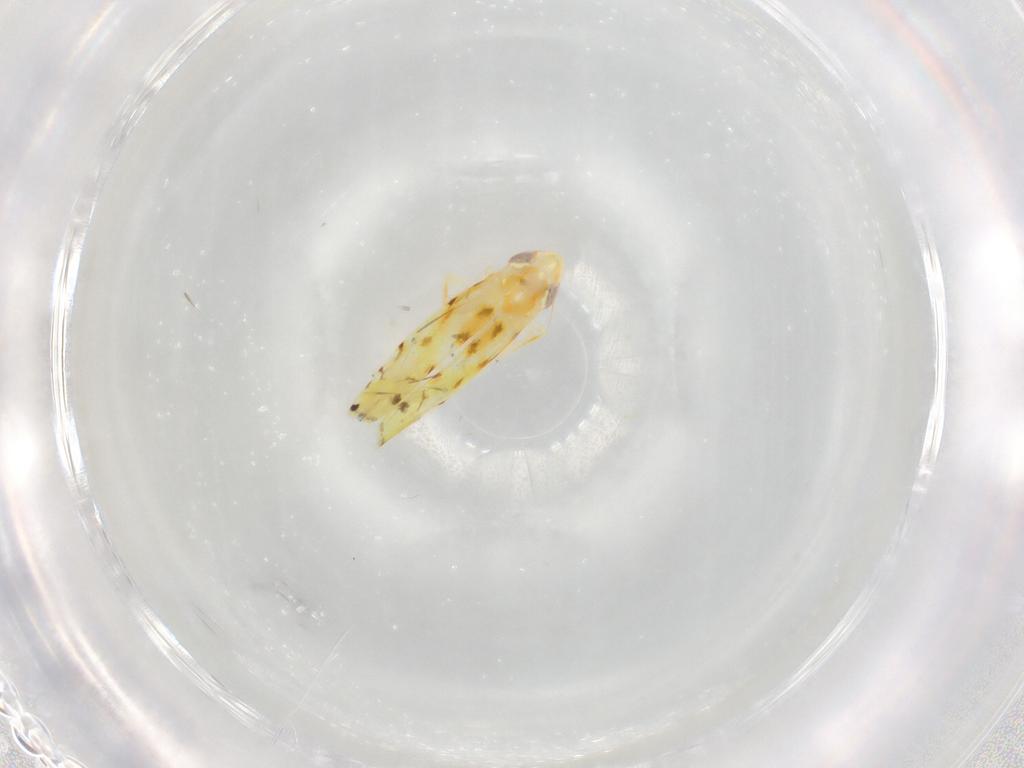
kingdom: Animalia
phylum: Arthropoda
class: Insecta
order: Hemiptera
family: Cicadellidae
